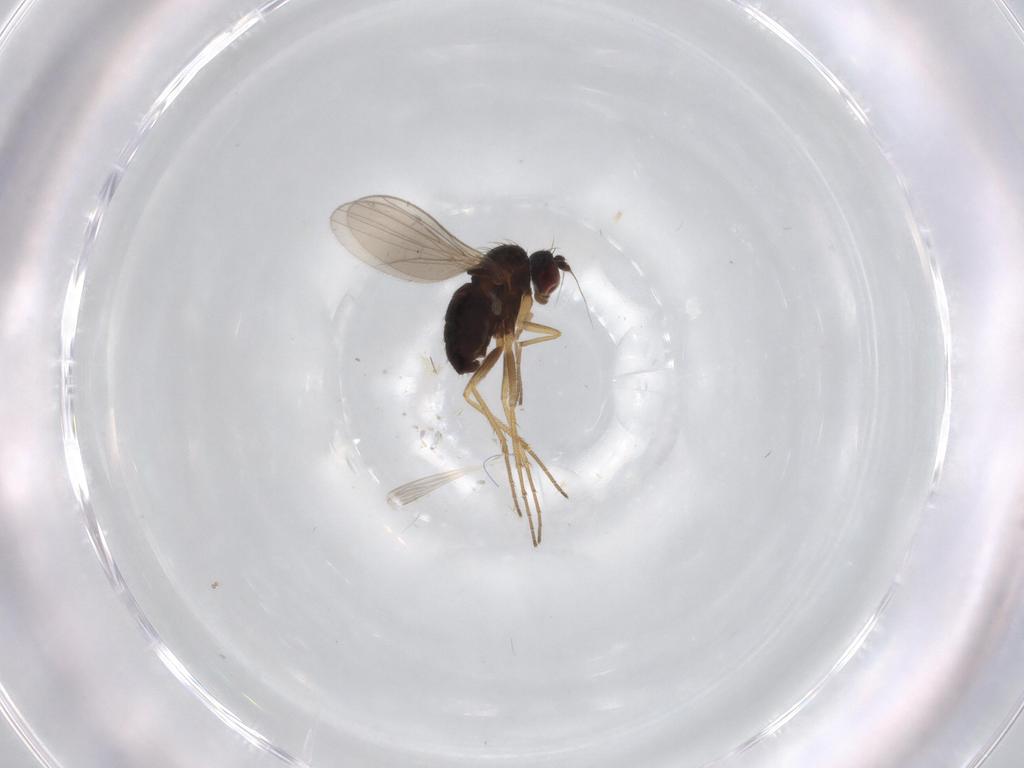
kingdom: Animalia
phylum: Arthropoda
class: Insecta
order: Diptera
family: Dolichopodidae
